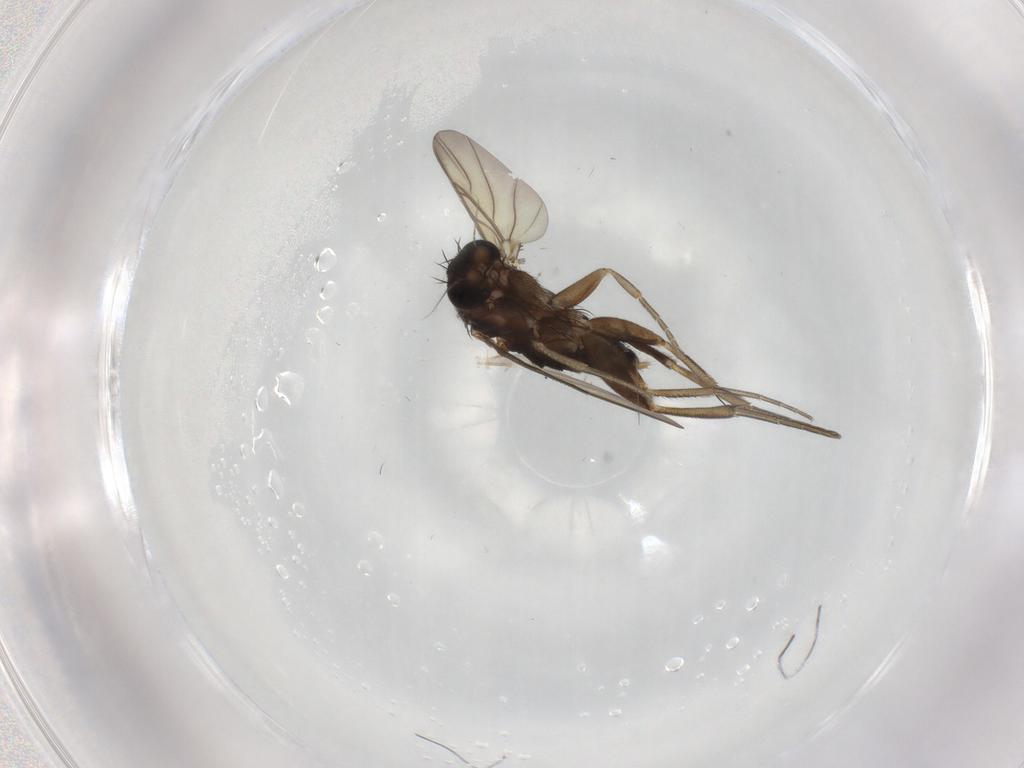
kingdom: Animalia
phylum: Arthropoda
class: Insecta
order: Diptera
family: Phoridae
